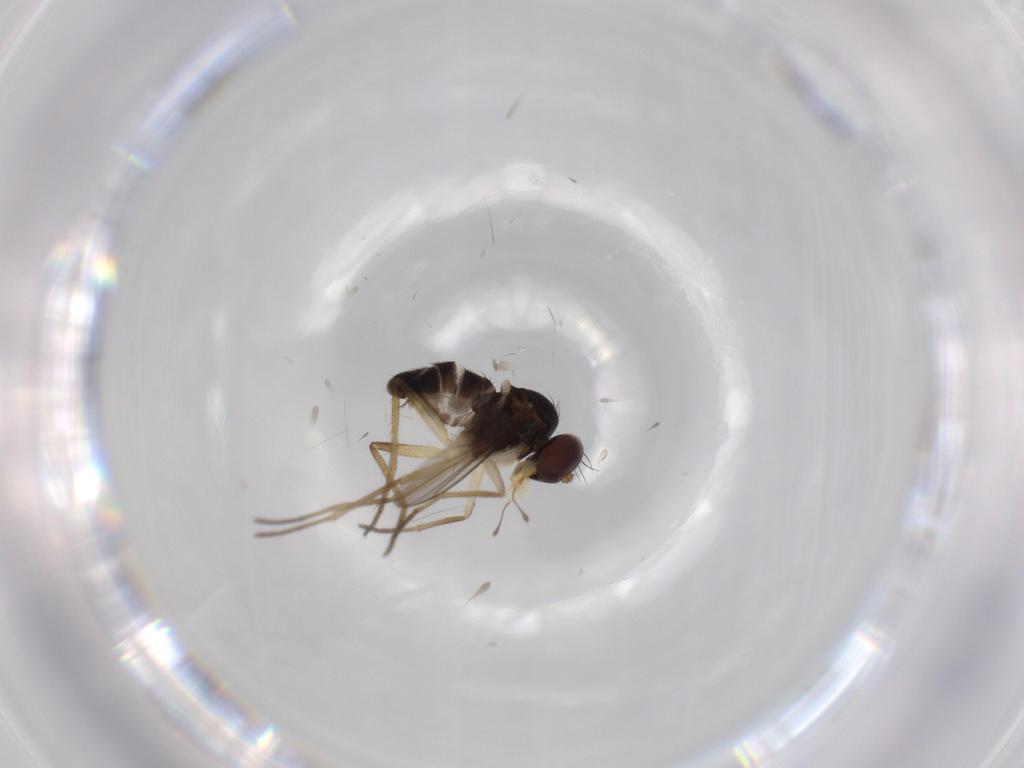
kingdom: Animalia
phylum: Arthropoda
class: Insecta
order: Diptera
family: Dolichopodidae
